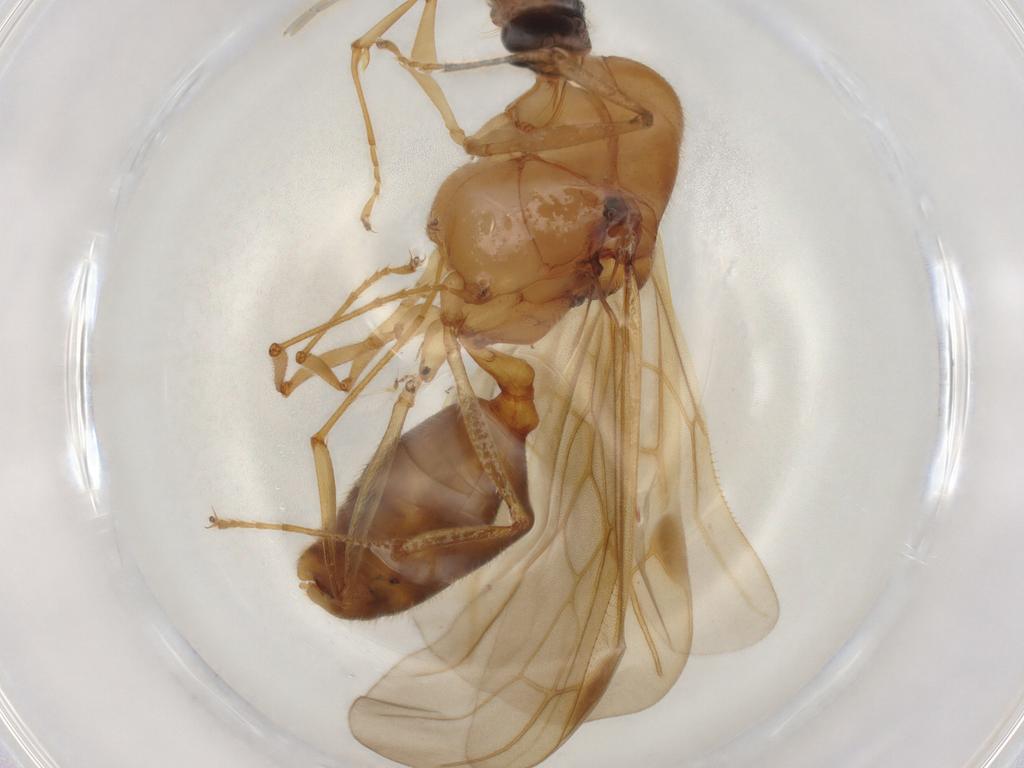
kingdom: Animalia
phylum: Arthropoda
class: Insecta
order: Hymenoptera
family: Formicidae
